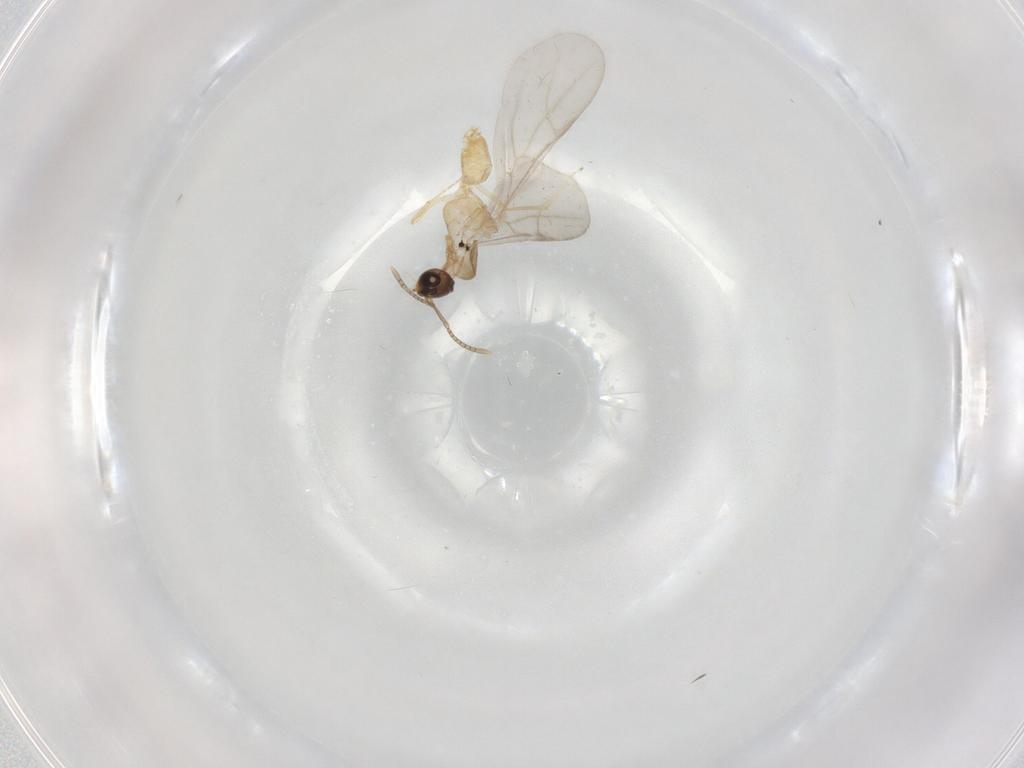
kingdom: Animalia
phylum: Arthropoda
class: Insecta
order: Hymenoptera
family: Formicidae
